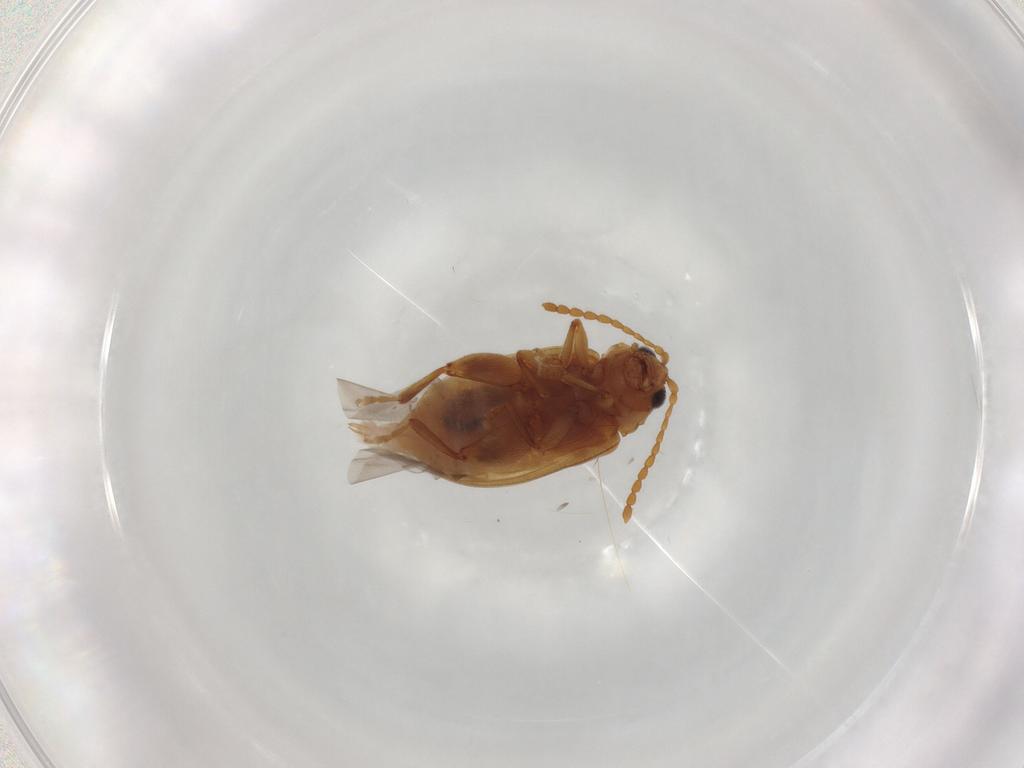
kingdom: Animalia
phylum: Arthropoda
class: Insecta
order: Coleoptera
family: Chrysomelidae
